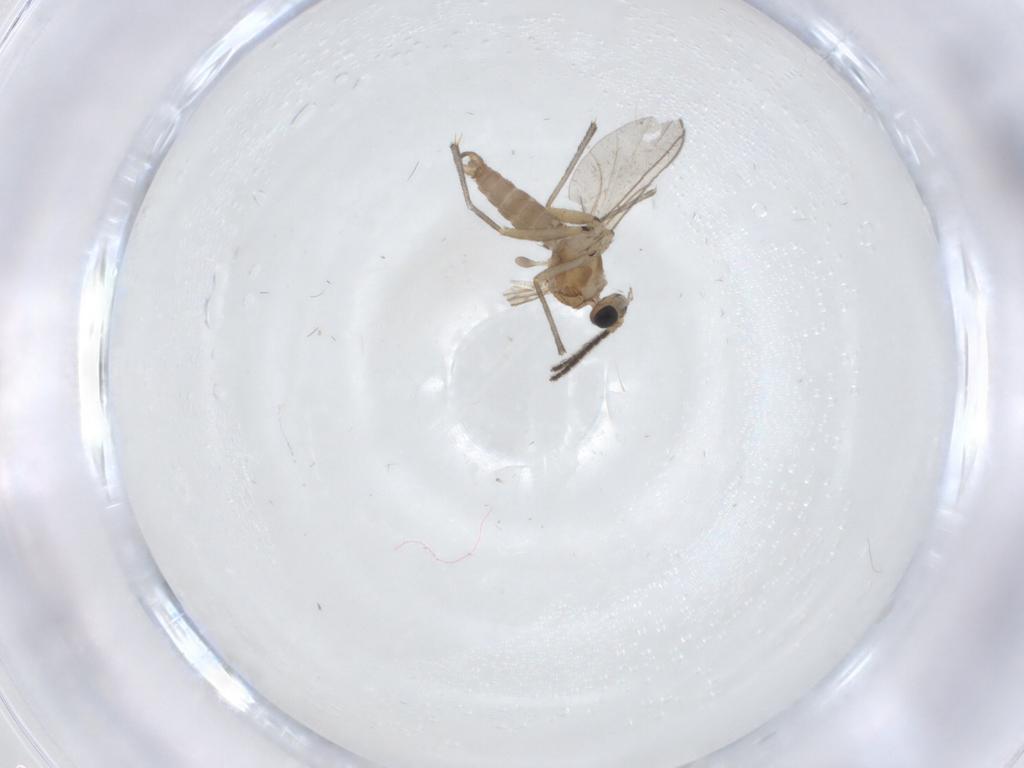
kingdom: Animalia
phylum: Arthropoda
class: Insecta
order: Diptera
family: Sciaridae
